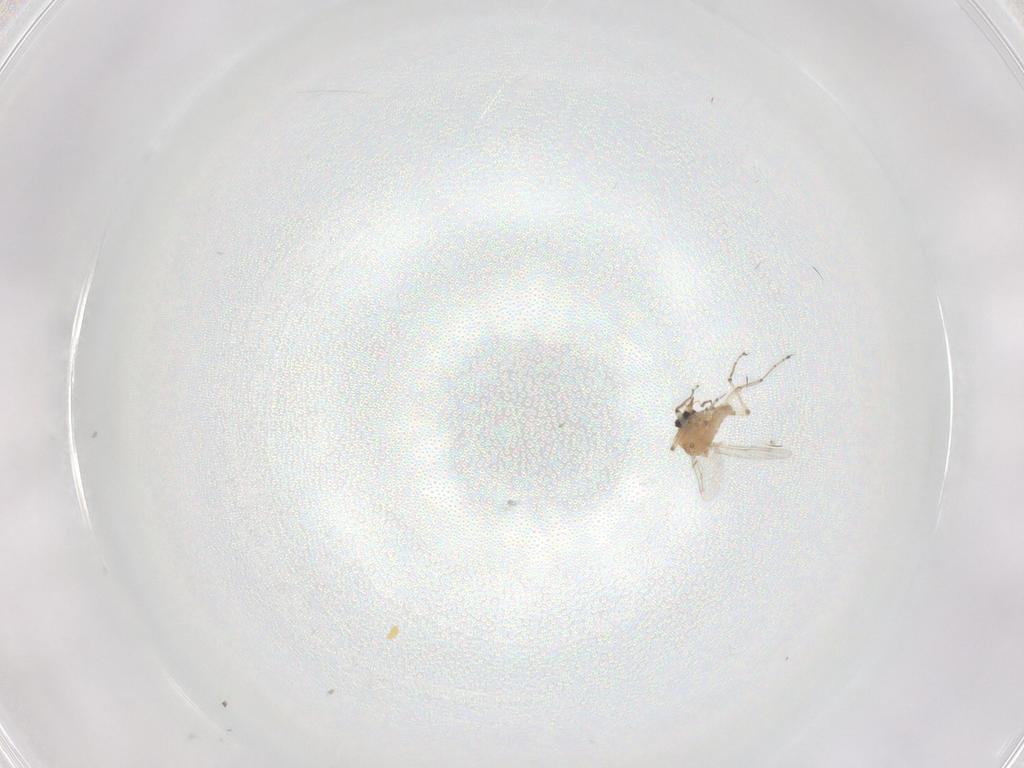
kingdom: Animalia
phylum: Arthropoda
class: Insecta
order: Diptera
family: Ceratopogonidae
